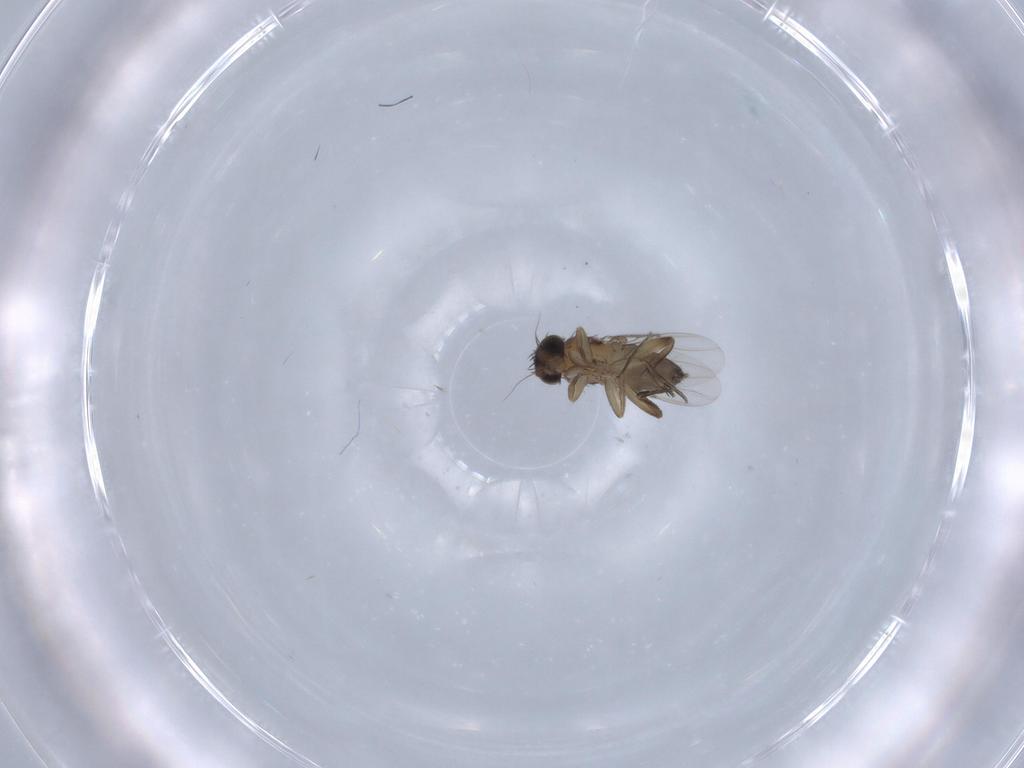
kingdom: Animalia
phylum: Arthropoda
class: Insecta
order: Diptera
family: Phoridae
